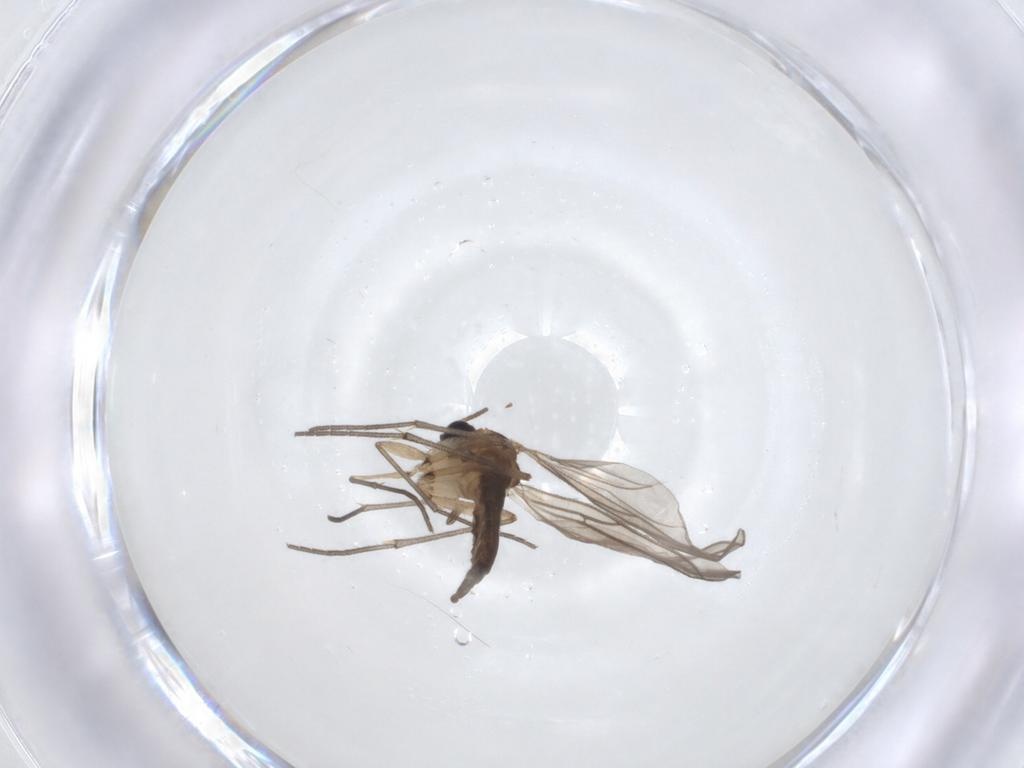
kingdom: Animalia
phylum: Arthropoda
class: Insecta
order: Diptera
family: Sciaridae
